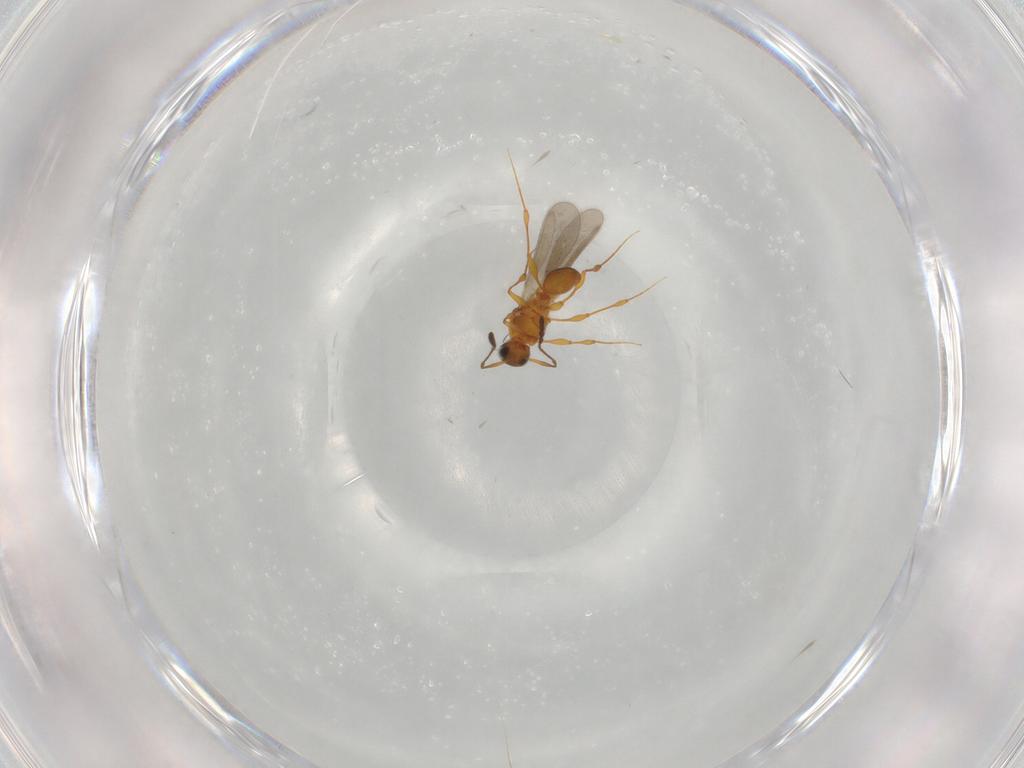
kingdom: Animalia
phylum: Arthropoda
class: Insecta
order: Hymenoptera
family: Platygastridae
